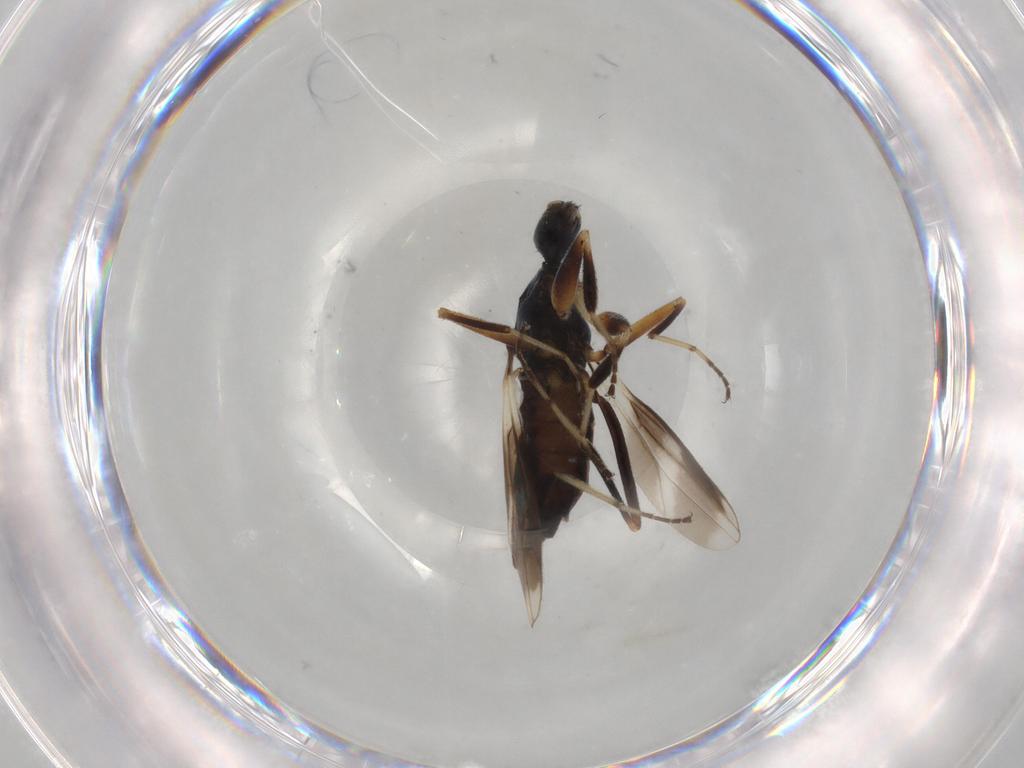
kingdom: Animalia
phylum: Arthropoda
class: Insecta
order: Diptera
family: Hybotidae
